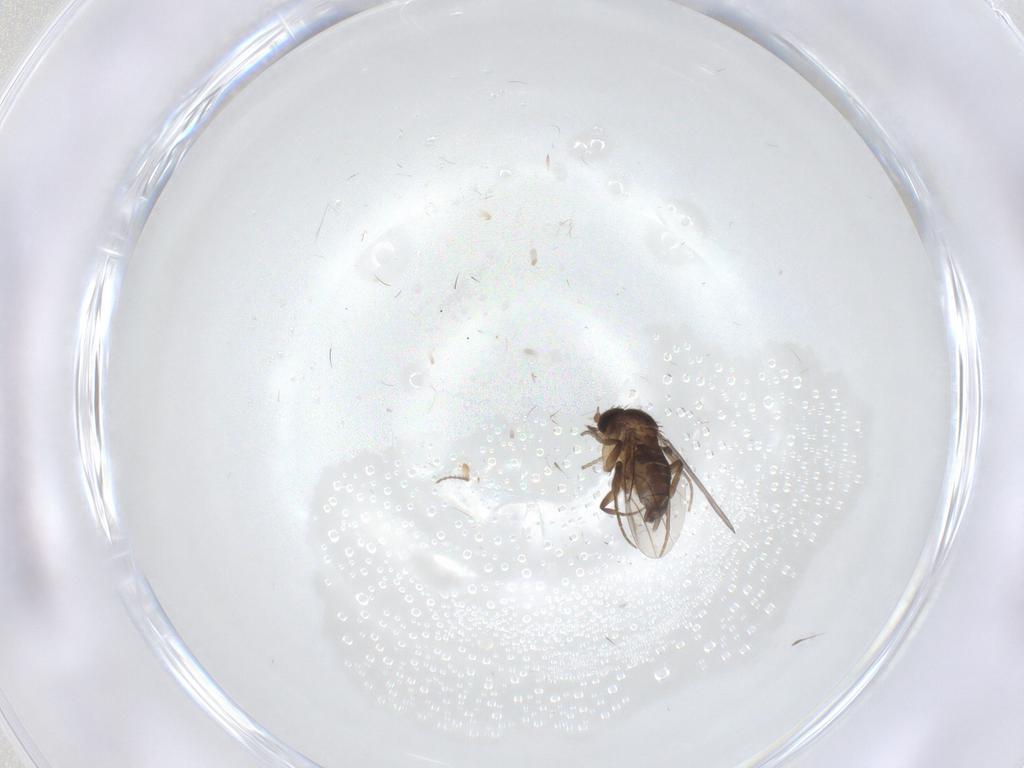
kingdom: Animalia
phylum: Arthropoda
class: Insecta
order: Diptera
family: Phoridae
